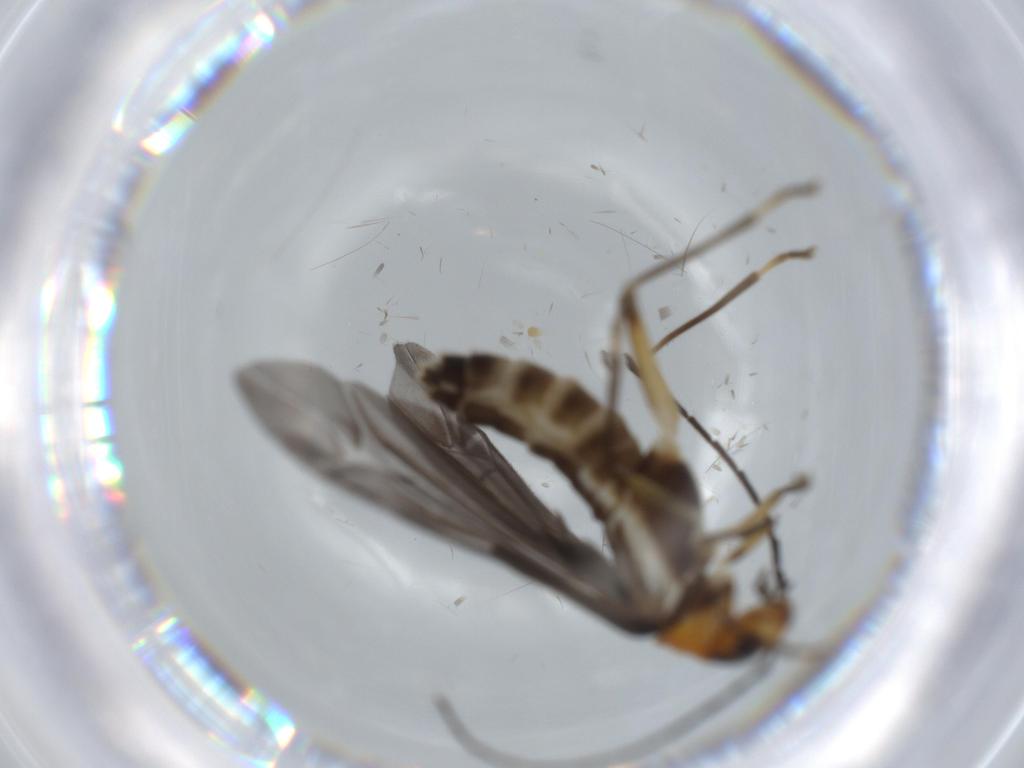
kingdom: Animalia
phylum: Arthropoda
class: Insecta
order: Coleoptera
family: Cantharidae
